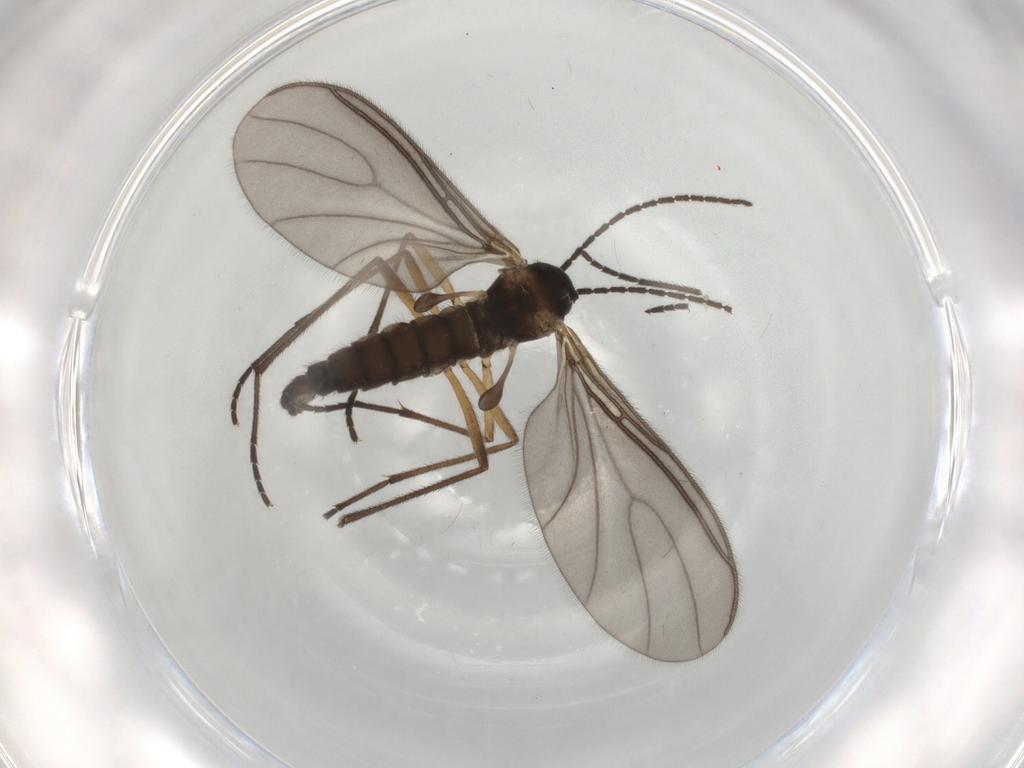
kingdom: Animalia
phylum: Arthropoda
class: Insecta
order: Diptera
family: Sciaridae
